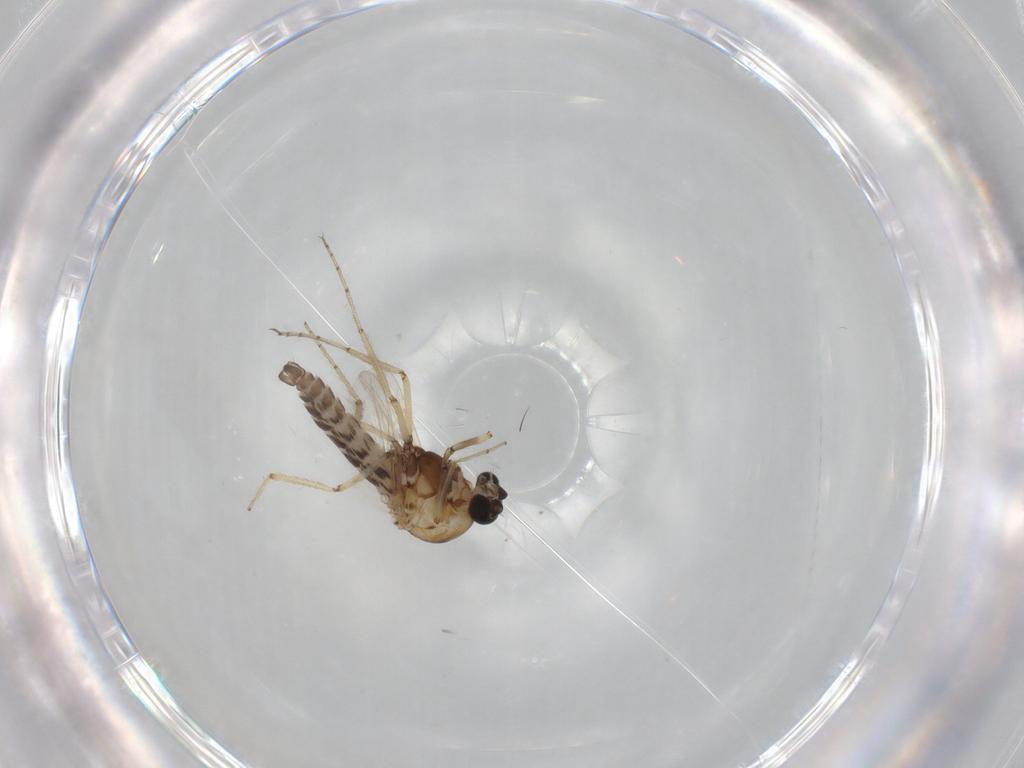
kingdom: Animalia
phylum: Arthropoda
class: Insecta
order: Diptera
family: Ceratopogonidae
